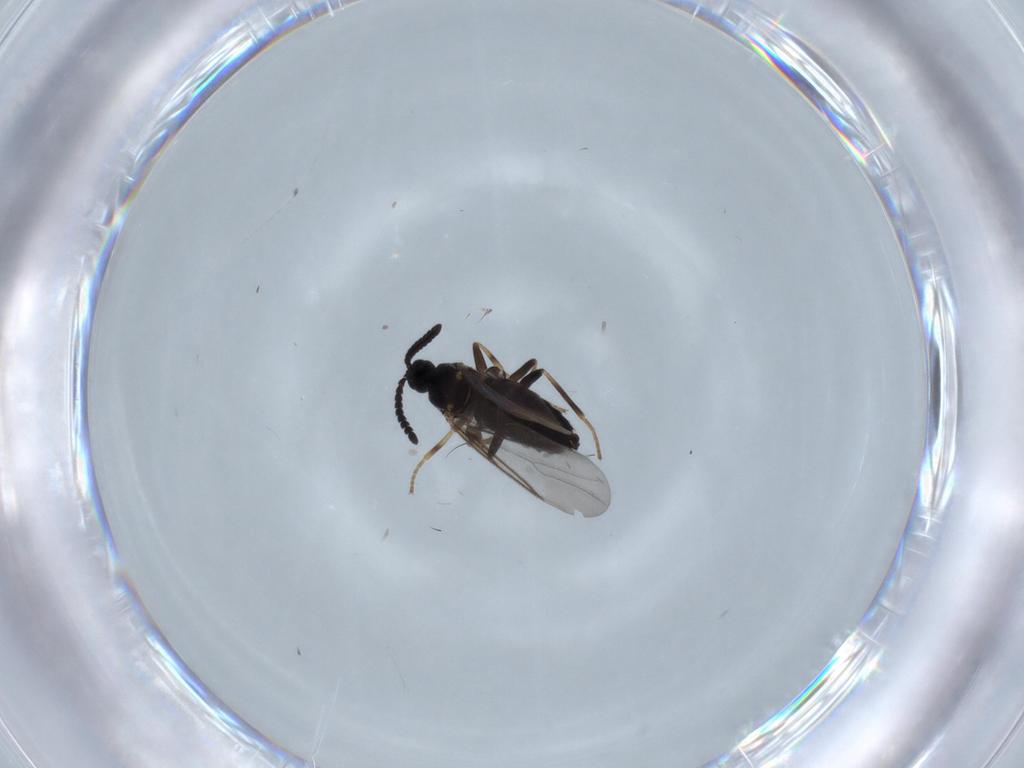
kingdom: Animalia
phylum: Arthropoda
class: Insecta
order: Diptera
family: Scatopsidae
